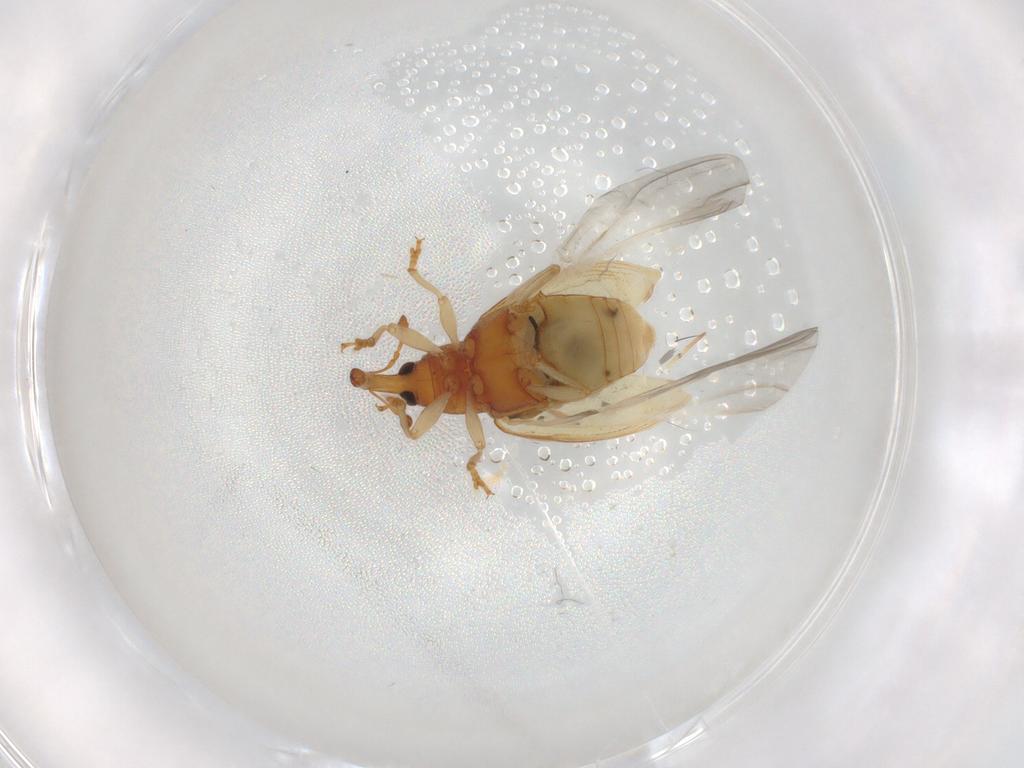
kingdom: Animalia
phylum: Arthropoda
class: Insecta
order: Coleoptera
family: Curculionidae
